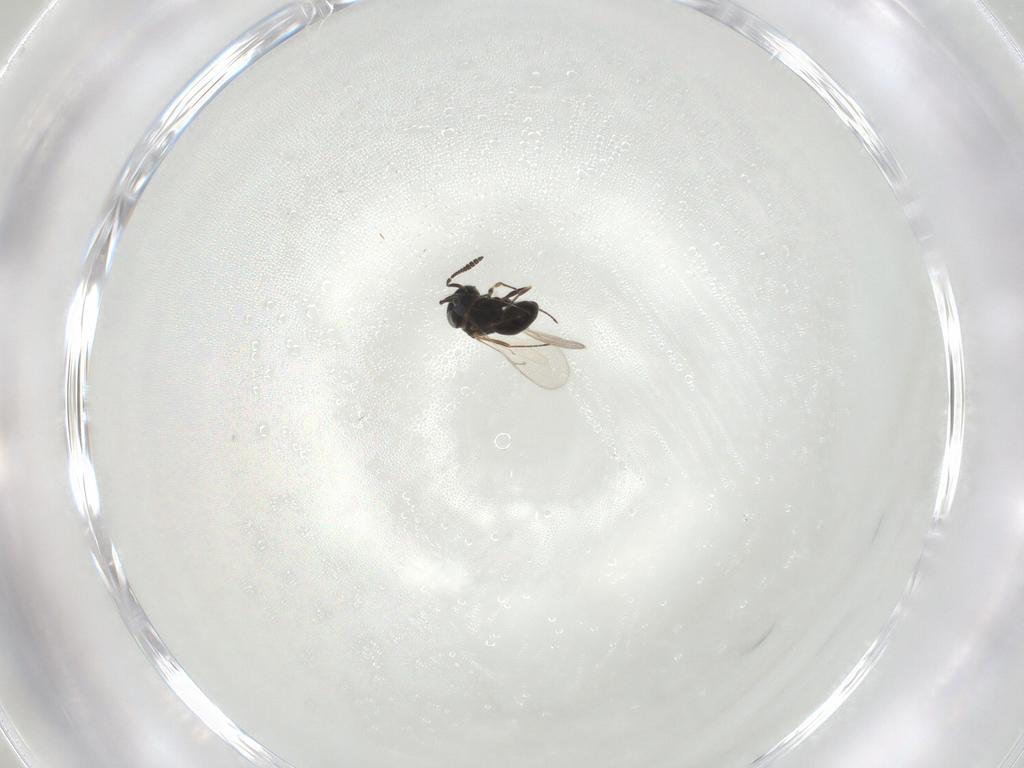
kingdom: Animalia
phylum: Arthropoda
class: Insecta
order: Hymenoptera
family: Scelionidae
